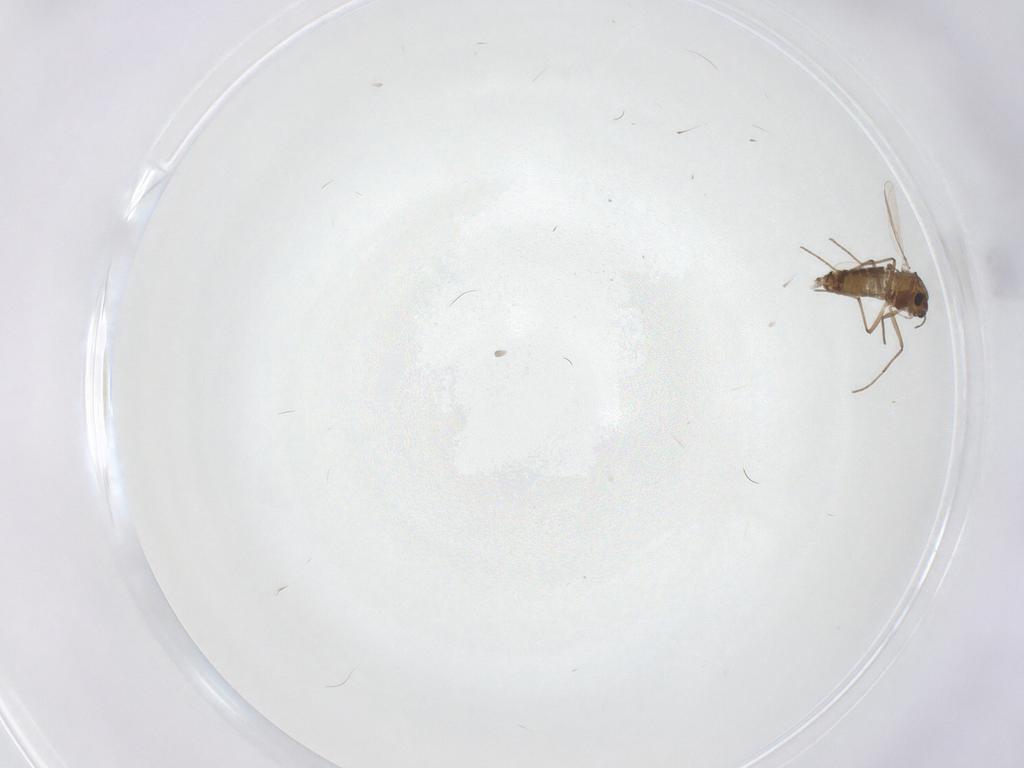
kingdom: Animalia
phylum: Arthropoda
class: Insecta
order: Diptera
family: Chironomidae
